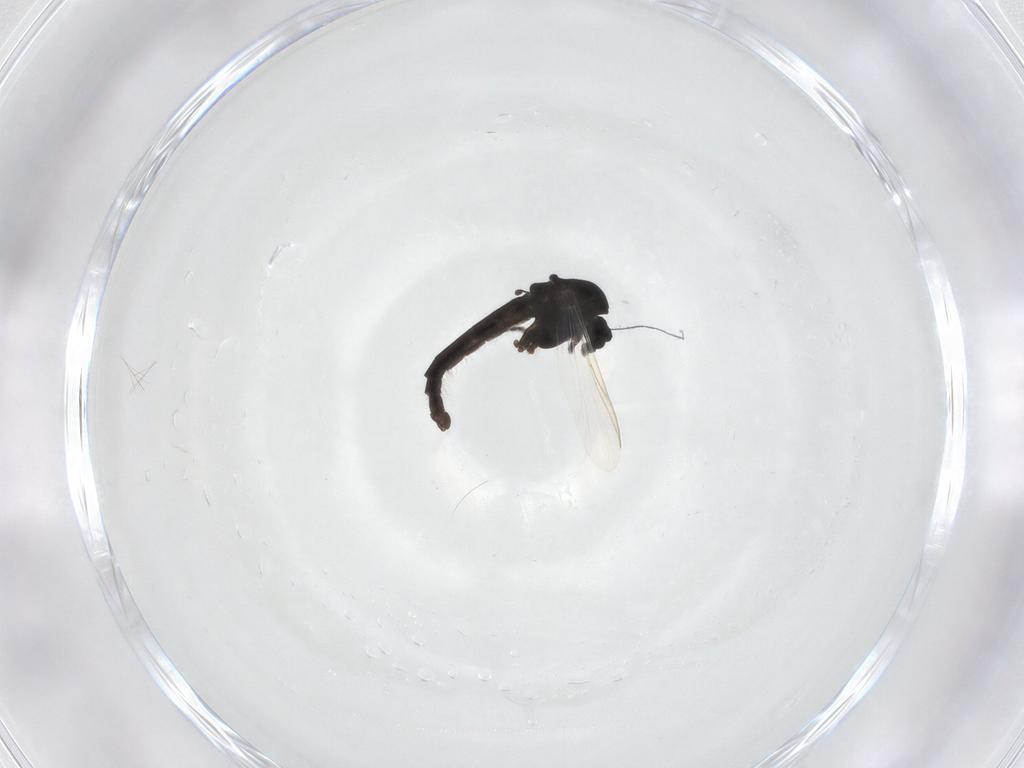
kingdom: Animalia
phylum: Arthropoda
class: Insecta
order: Diptera
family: Chironomidae
